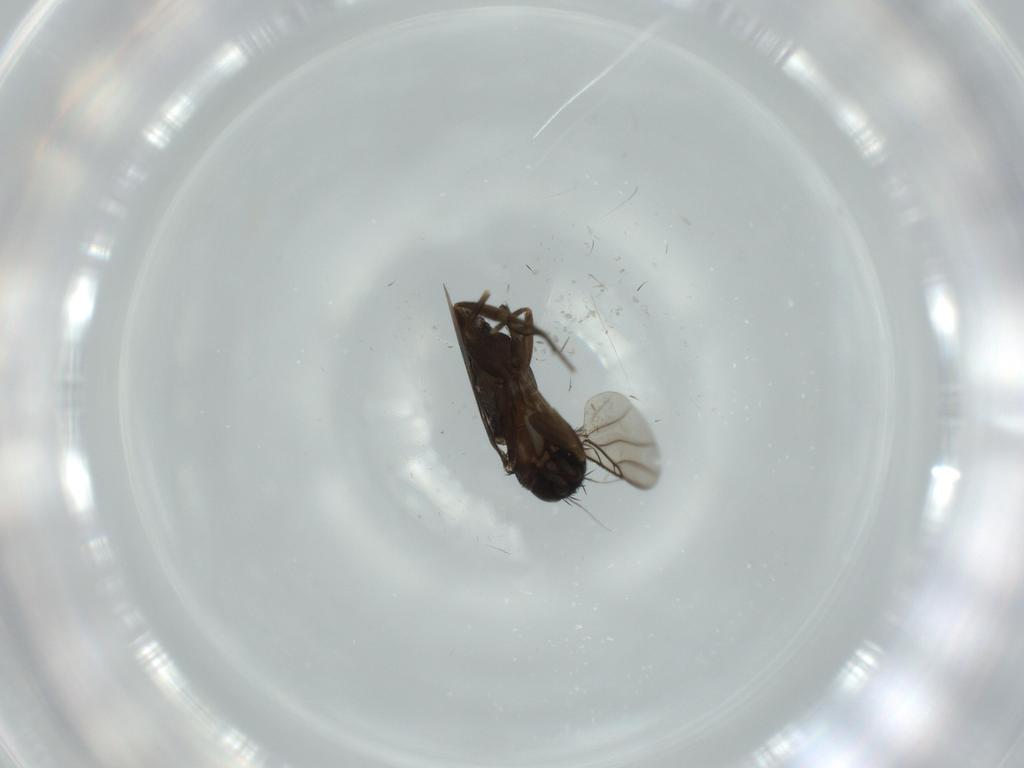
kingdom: Animalia
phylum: Arthropoda
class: Insecta
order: Diptera
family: Phoridae
